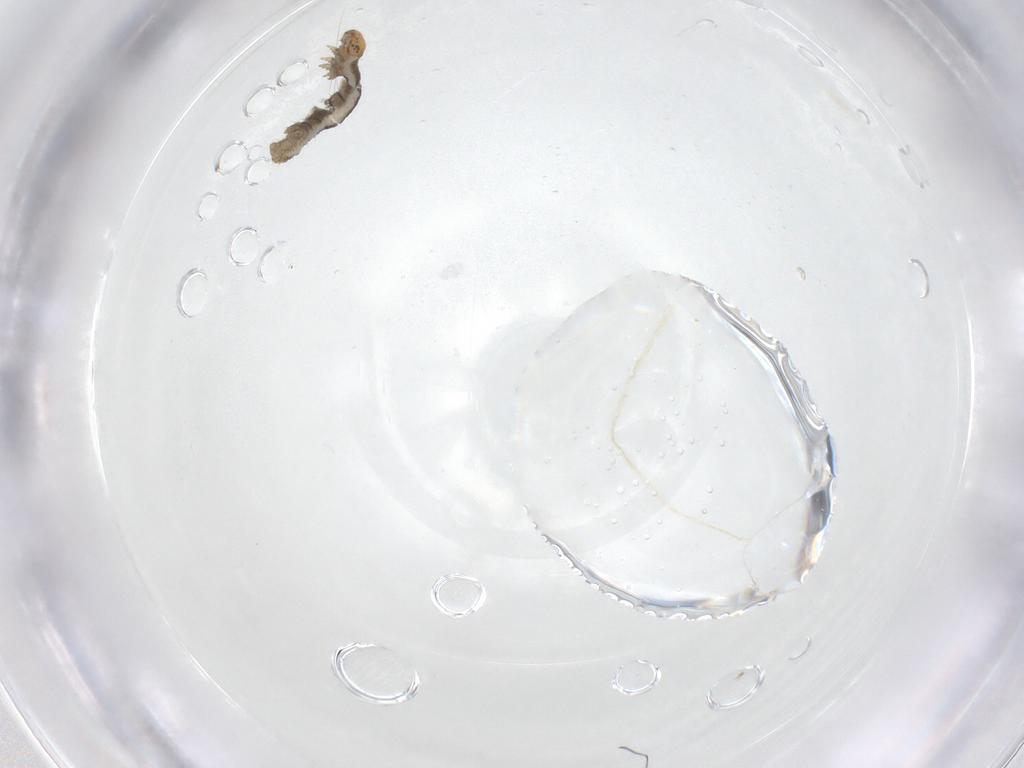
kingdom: Animalia
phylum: Arthropoda
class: Insecta
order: Lepidoptera
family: Geometridae
